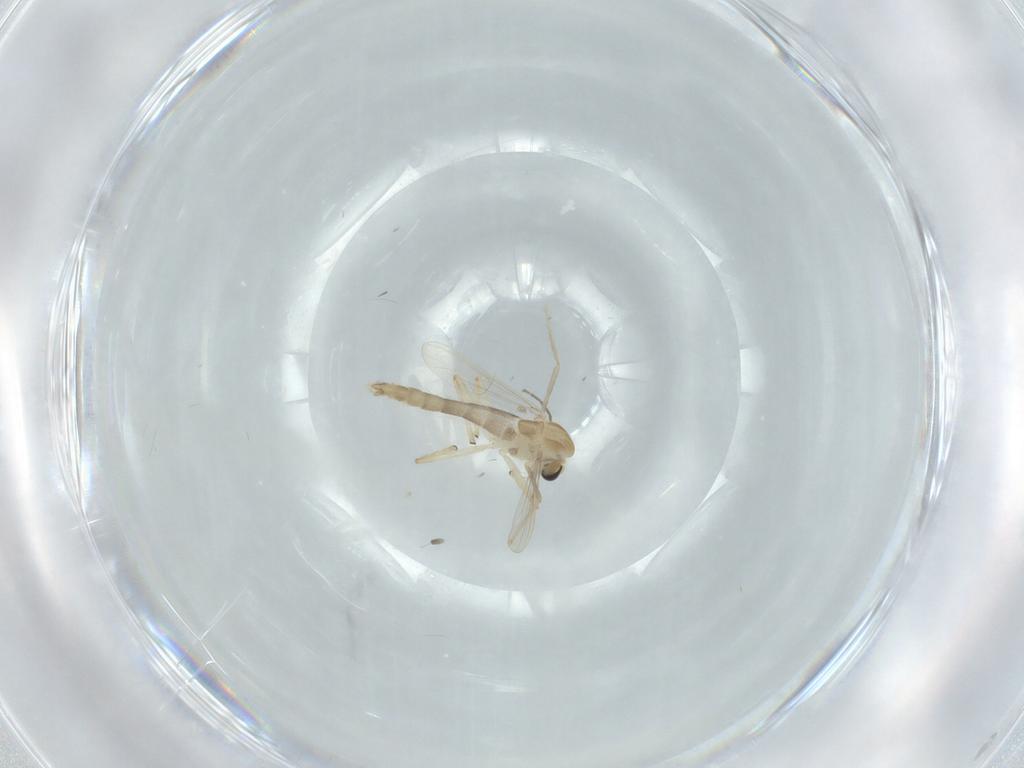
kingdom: Animalia
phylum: Arthropoda
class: Insecta
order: Diptera
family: Chironomidae
